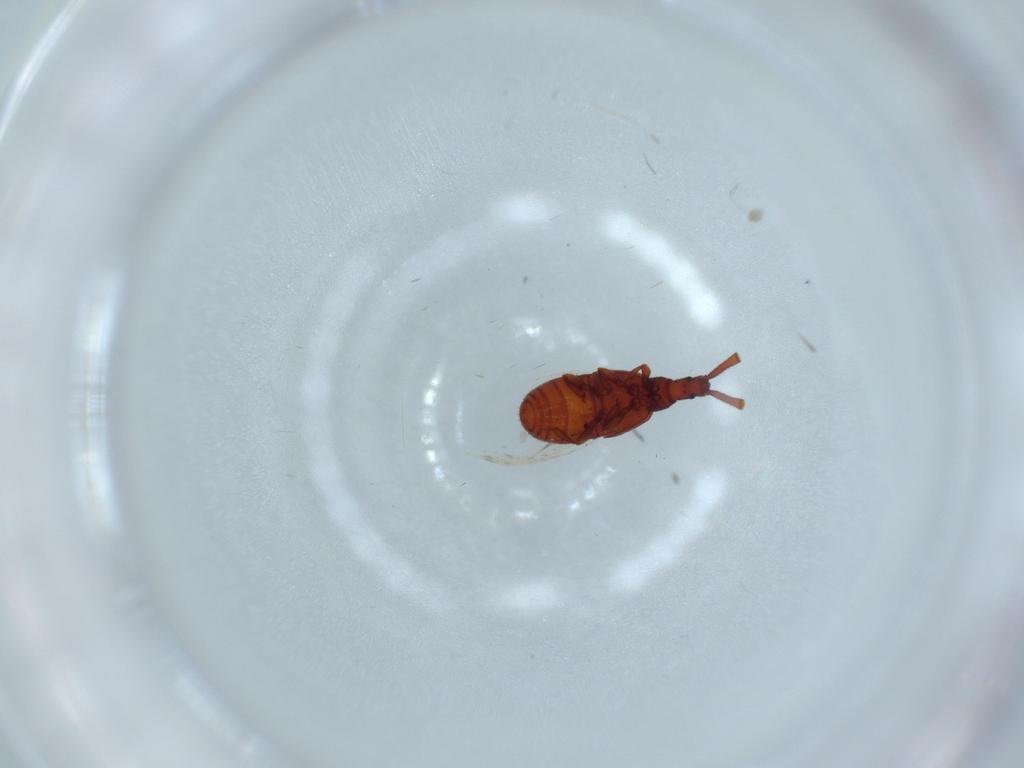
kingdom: Animalia
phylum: Arthropoda
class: Insecta
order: Coleoptera
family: Staphylinidae
